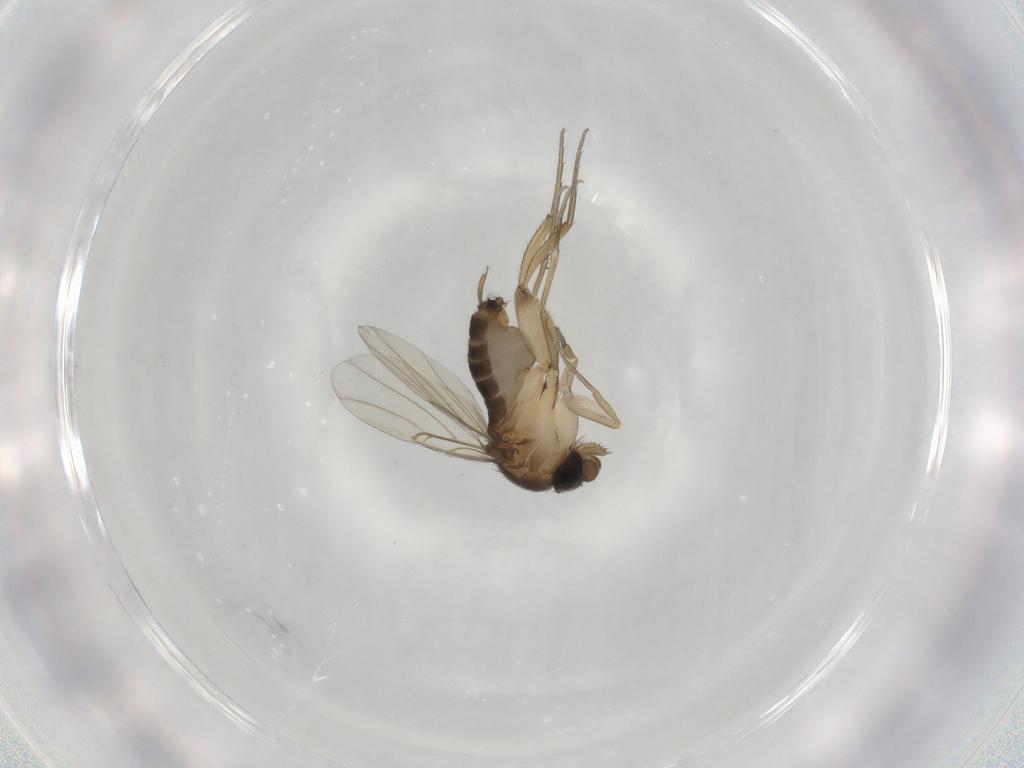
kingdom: Animalia
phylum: Arthropoda
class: Insecta
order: Diptera
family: Phoridae
